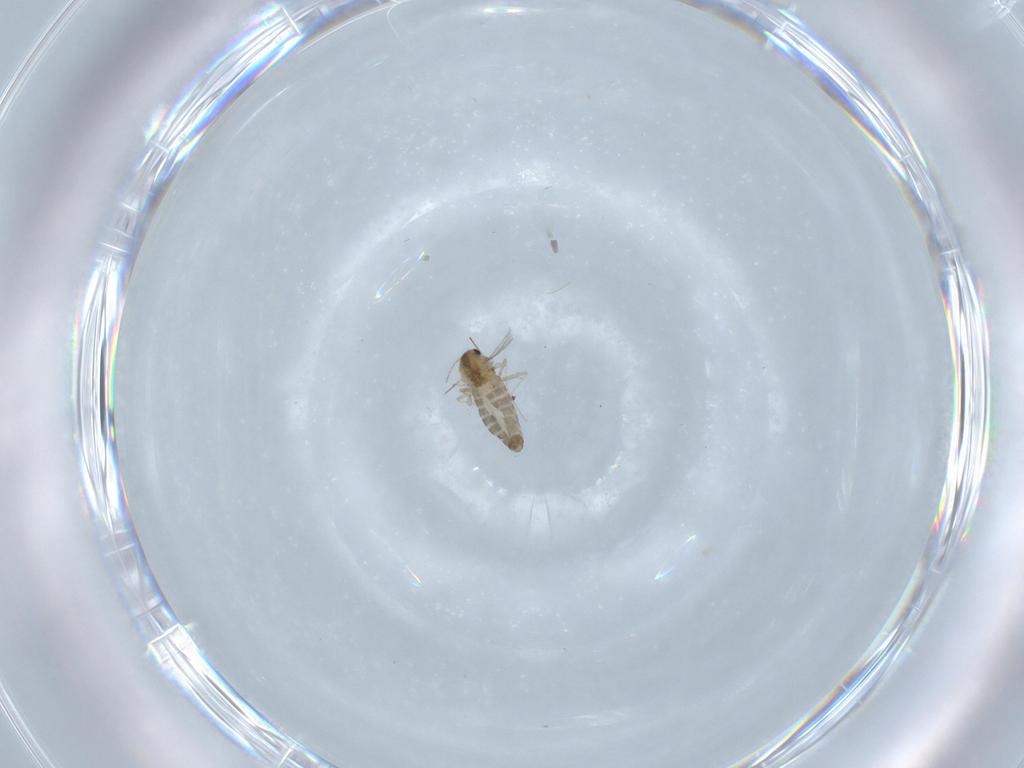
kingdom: Animalia
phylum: Arthropoda
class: Insecta
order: Diptera
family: Chironomidae
